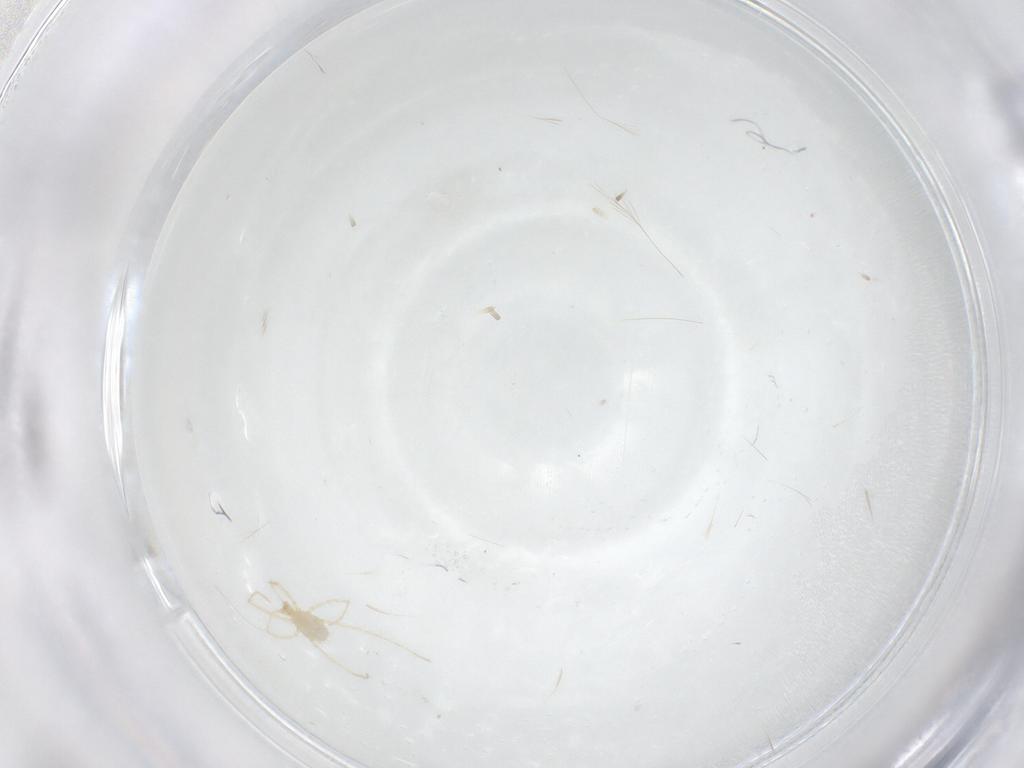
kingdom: Animalia
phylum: Arthropoda
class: Arachnida
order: Trombidiformes
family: Erythraeidae
